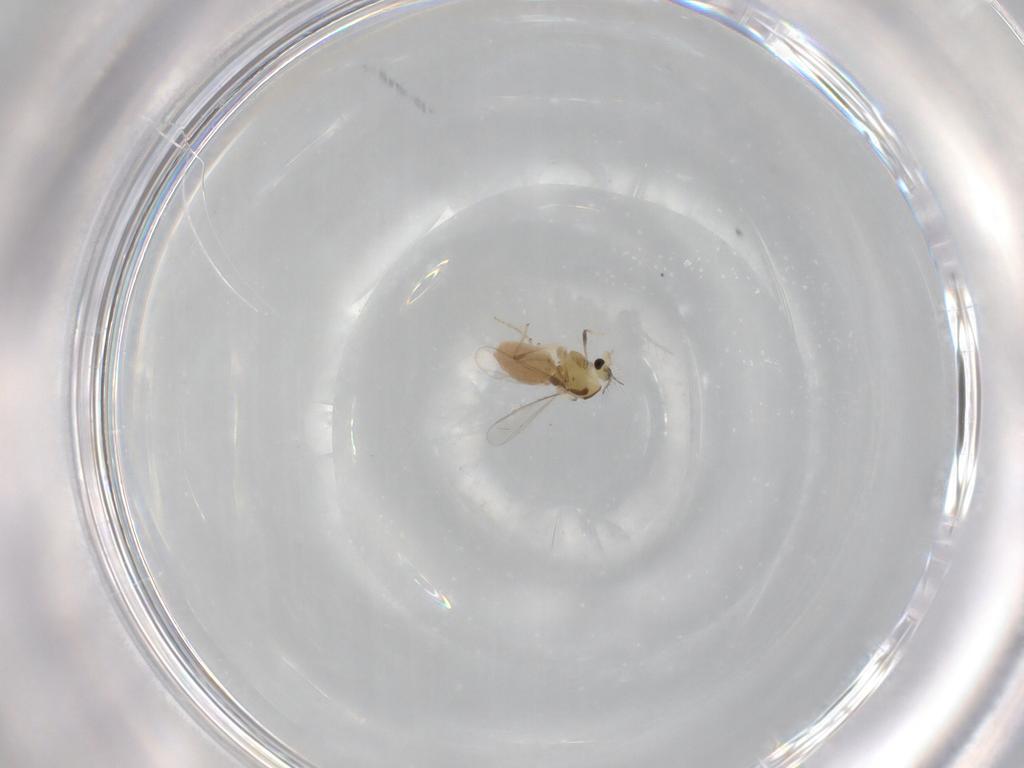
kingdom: Animalia
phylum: Arthropoda
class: Insecta
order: Diptera
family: Chironomidae
